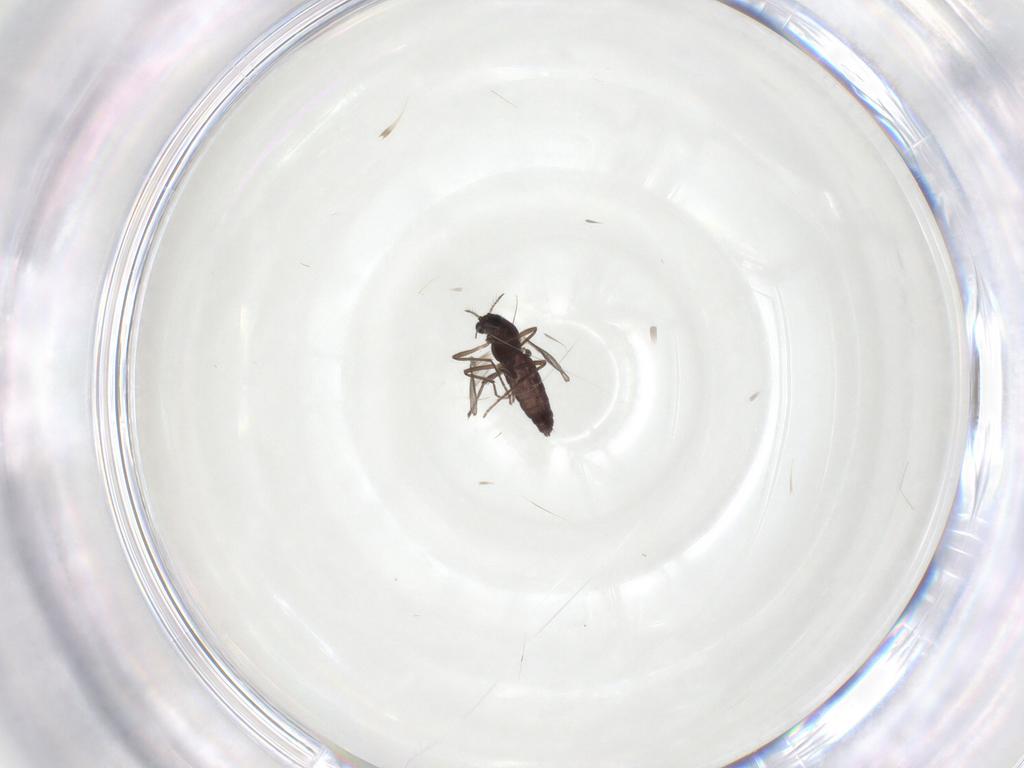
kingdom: Animalia
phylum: Arthropoda
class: Insecta
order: Diptera
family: Chironomidae
